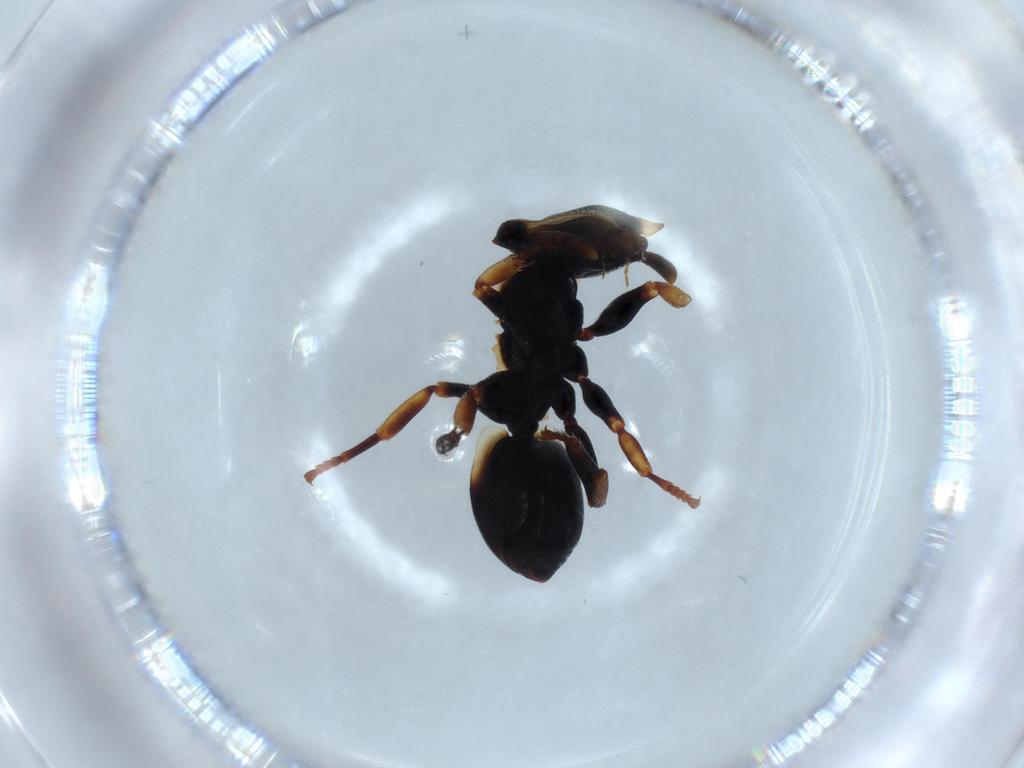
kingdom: Animalia
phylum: Arthropoda
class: Insecta
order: Hymenoptera
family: Formicidae
